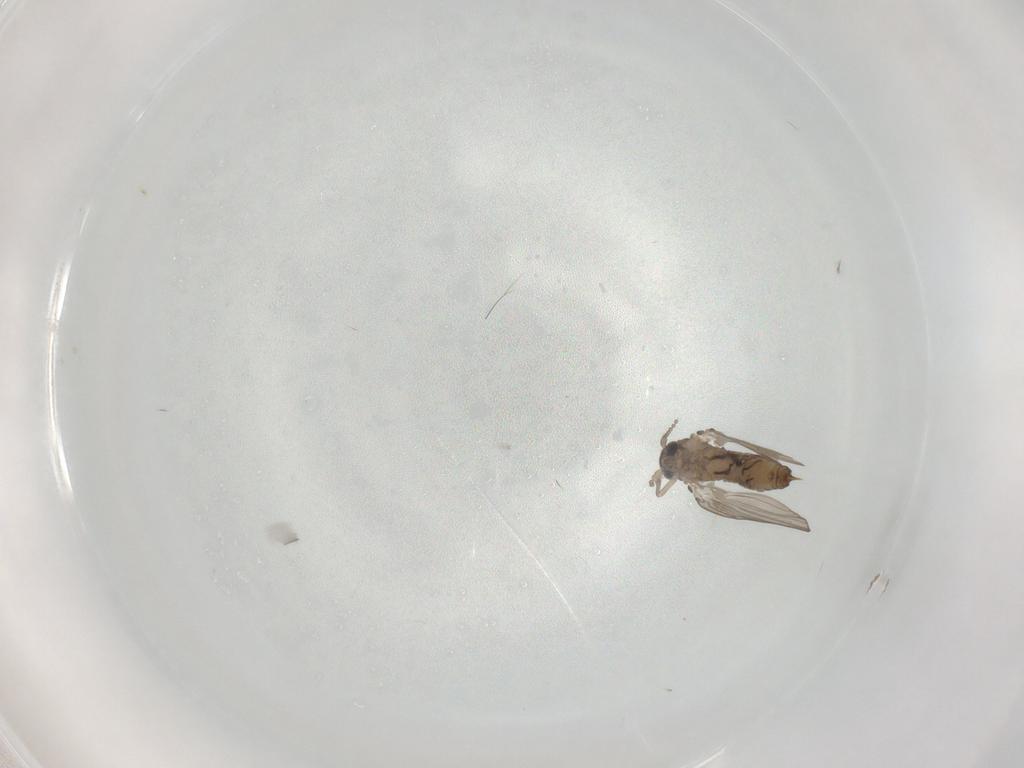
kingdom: Animalia
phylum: Arthropoda
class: Insecta
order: Diptera
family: Psychodidae
